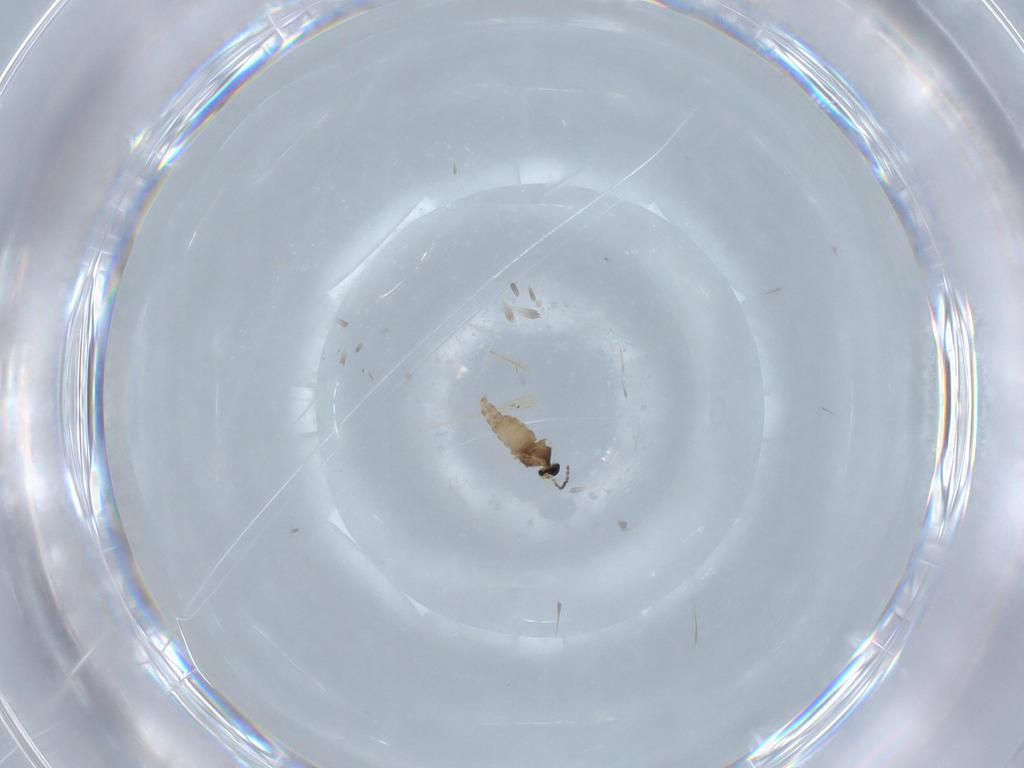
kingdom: Animalia
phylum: Arthropoda
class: Insecta
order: Diptera
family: Cecidomyiidae
